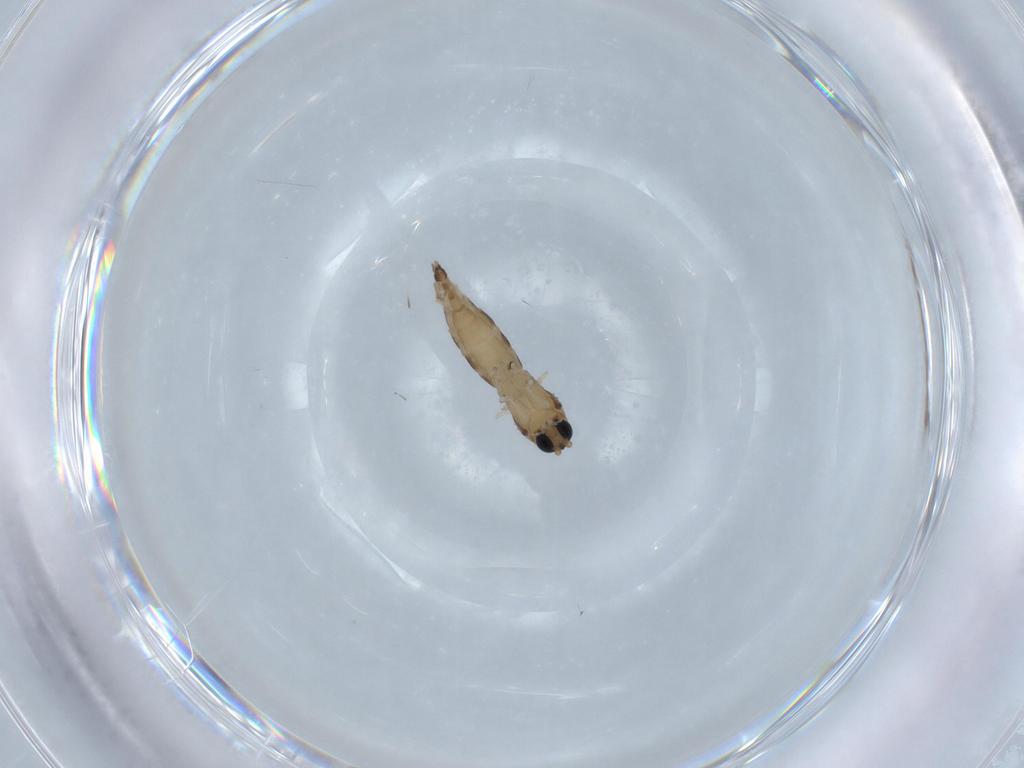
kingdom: Animalia
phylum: Arthropoda
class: Insecta
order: Diptera
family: Sciaridae
